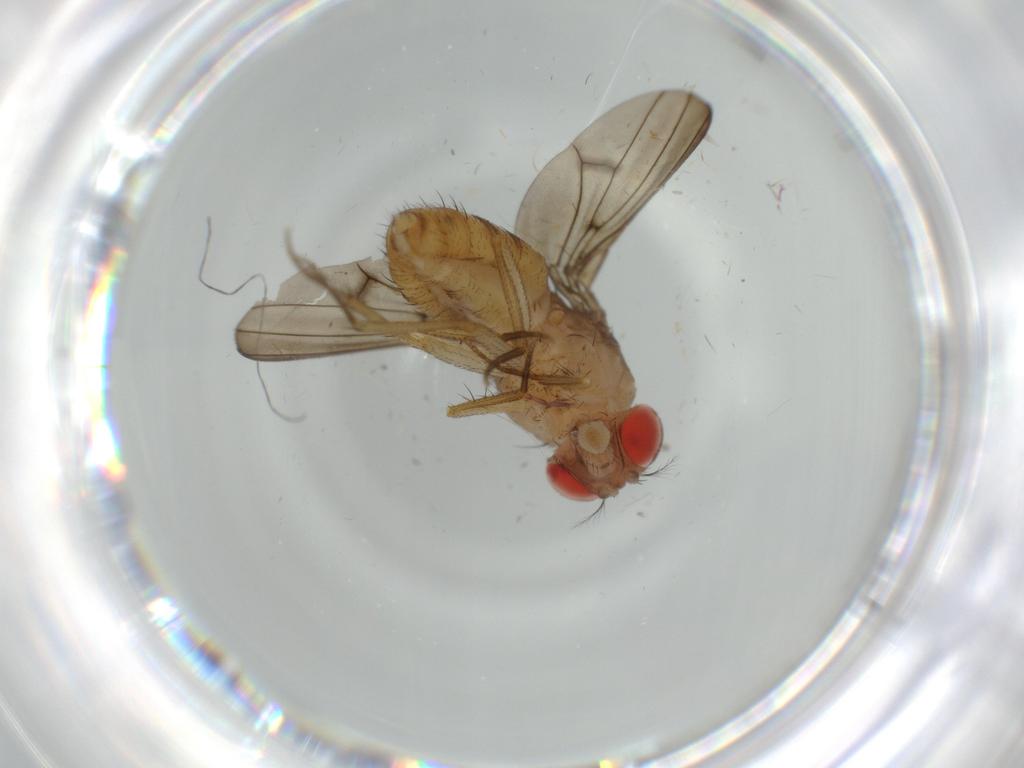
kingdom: Animalia
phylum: Arthropoda
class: Insecta
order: Diptera
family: Drosophilidae
